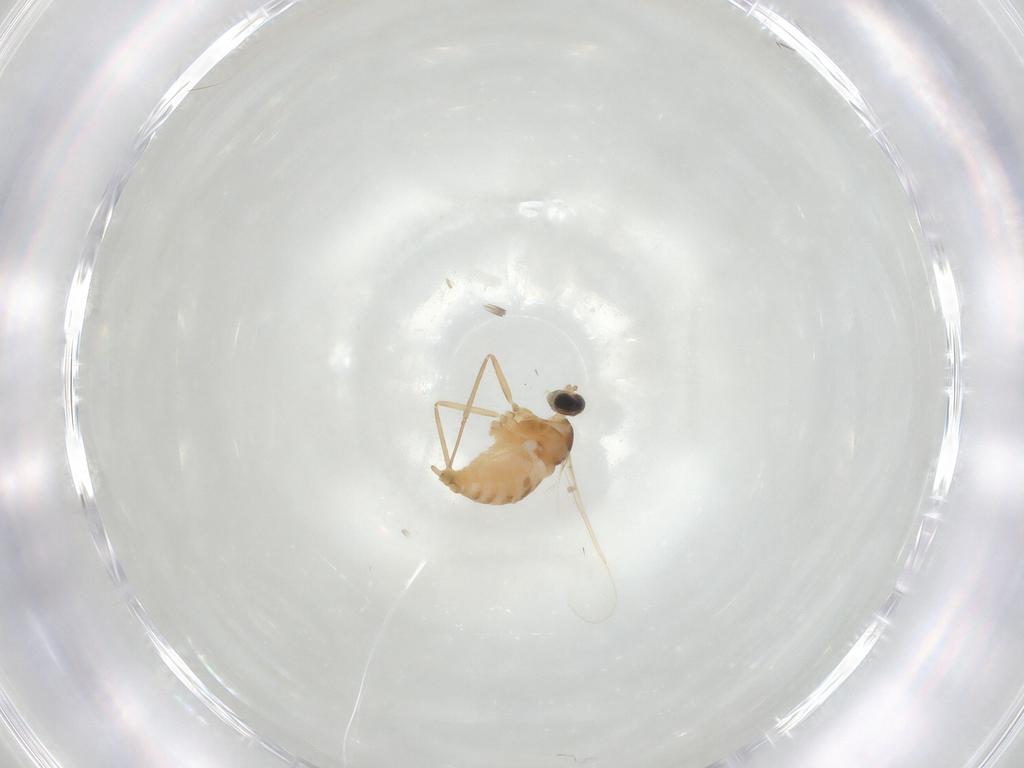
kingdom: Animalia
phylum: Arthropoda
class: Insecta
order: Diptera
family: Cecidomyiidae
